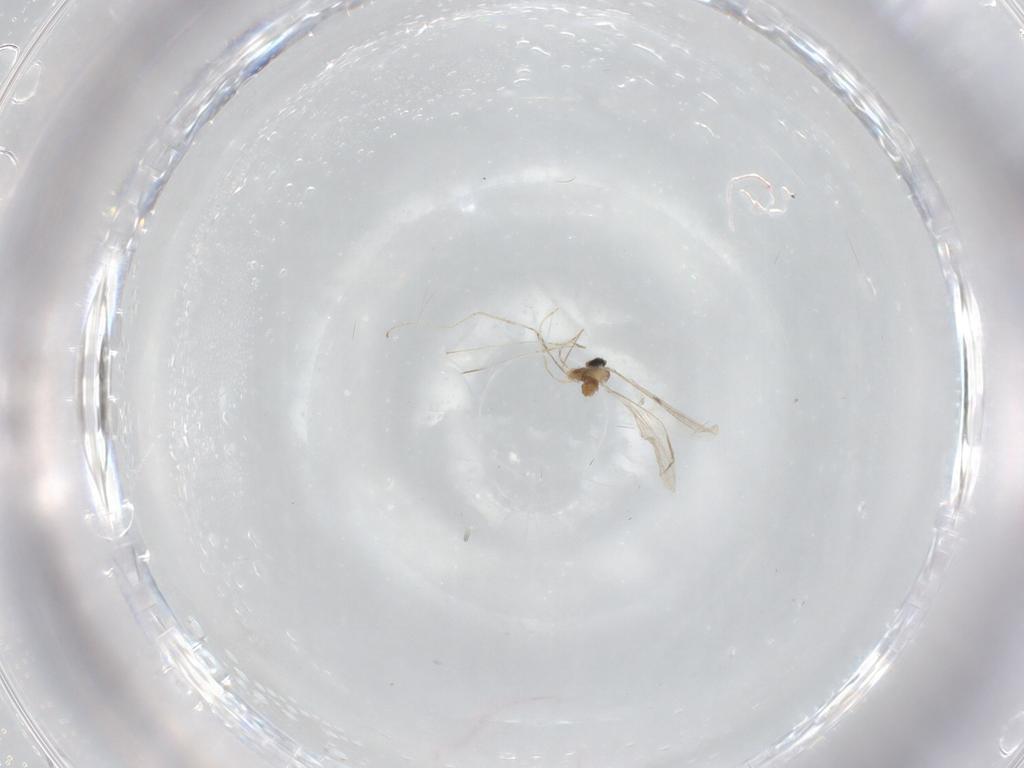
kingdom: Animalia
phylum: Arthropoda
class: Insecta
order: Diptera
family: Cecidomyiidae
